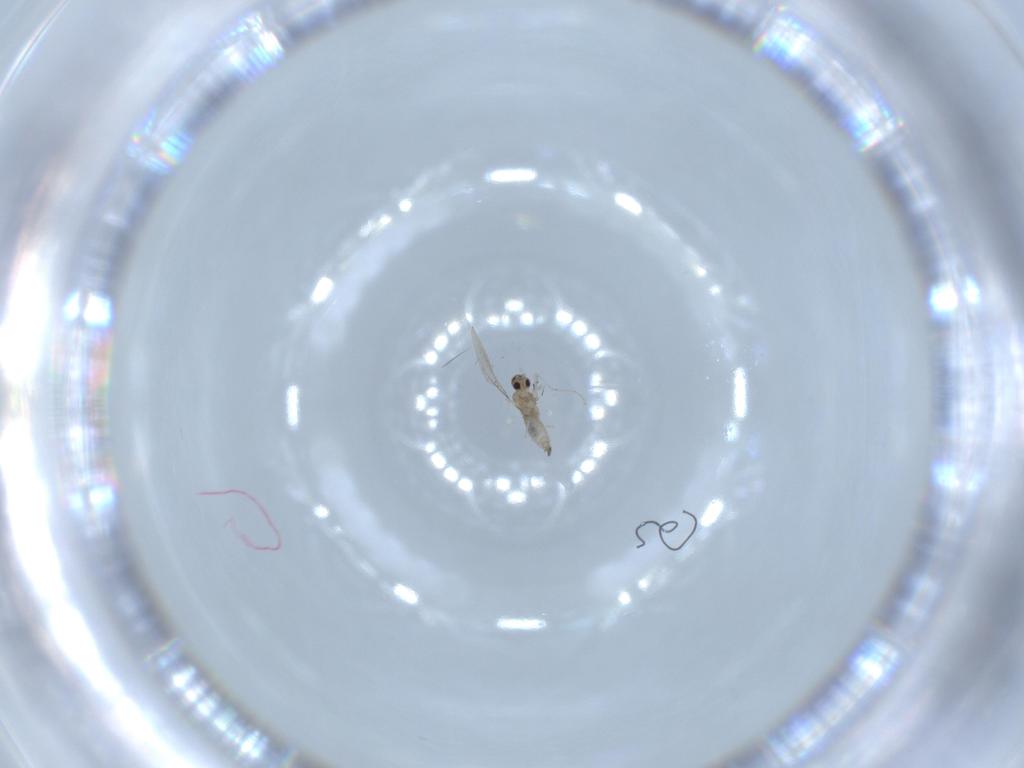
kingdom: Animalia
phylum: Arthropoda
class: Insecta
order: Diptera
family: Cecidomyiidae
